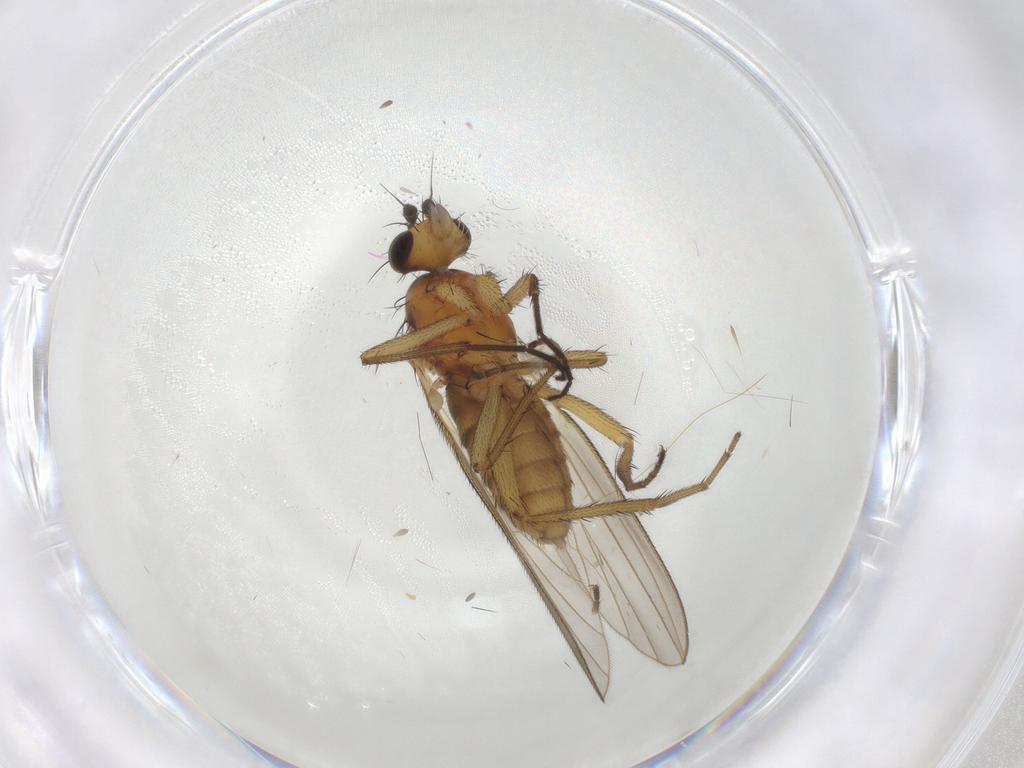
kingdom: Animalia
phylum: Arthropoda
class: Insecta
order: Diptera
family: Lonchopteridae
